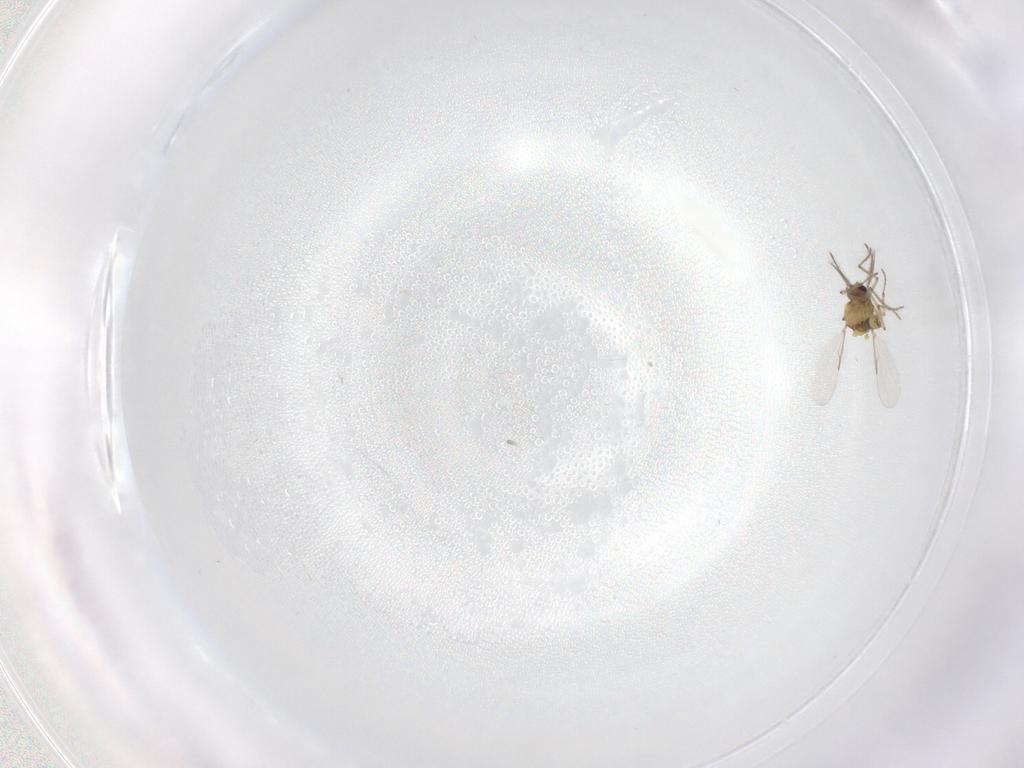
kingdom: Animalia
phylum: Arthropoda
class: Insecta
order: Diptera
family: Ceratopogonidae
